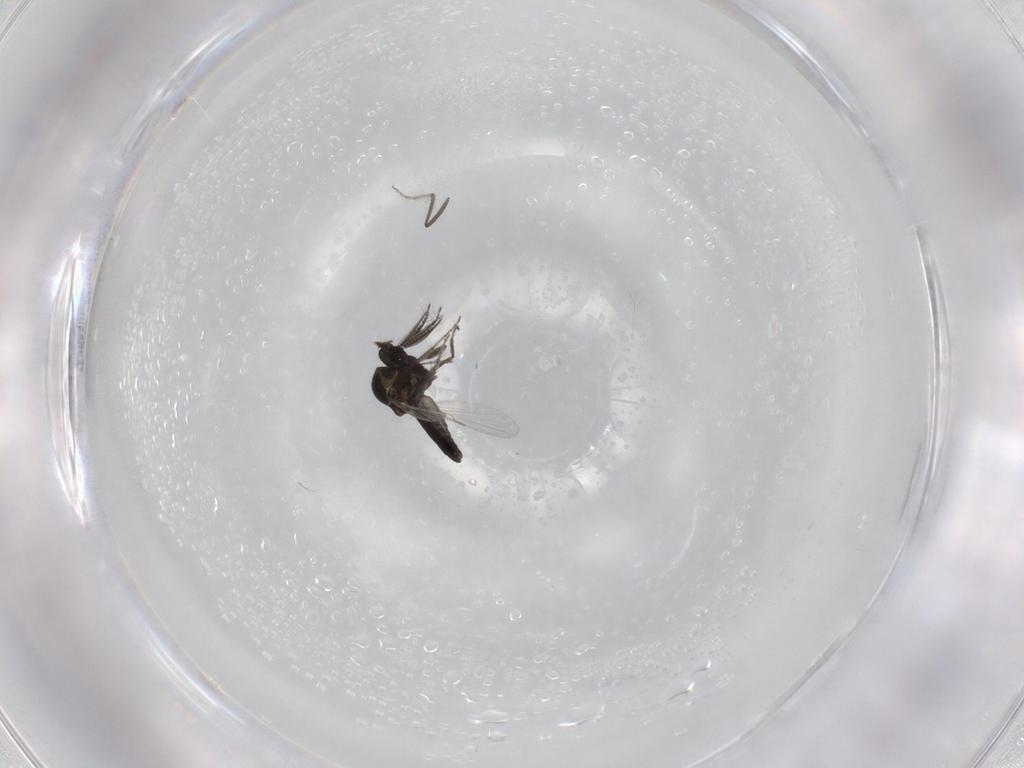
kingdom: Animalia
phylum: Arthropoda
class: Insecta
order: Diptera
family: Ceratopogonidae
